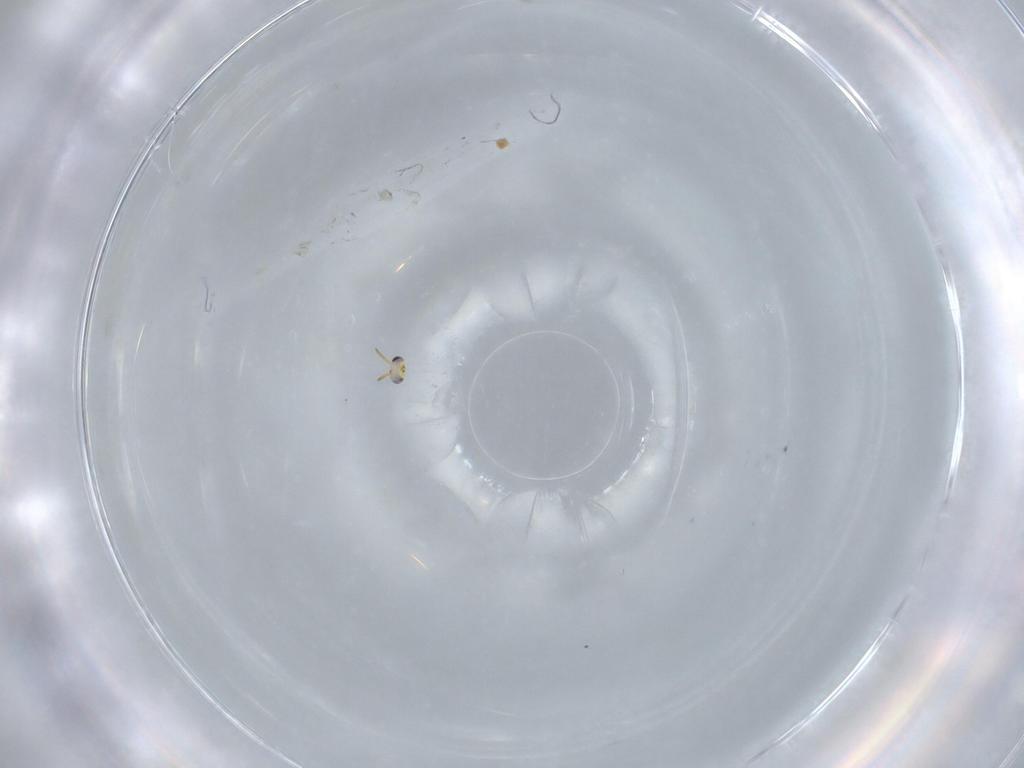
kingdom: Animalia
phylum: Arthropoda
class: Insecta
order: Hymenoptera
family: Aphelinidae
